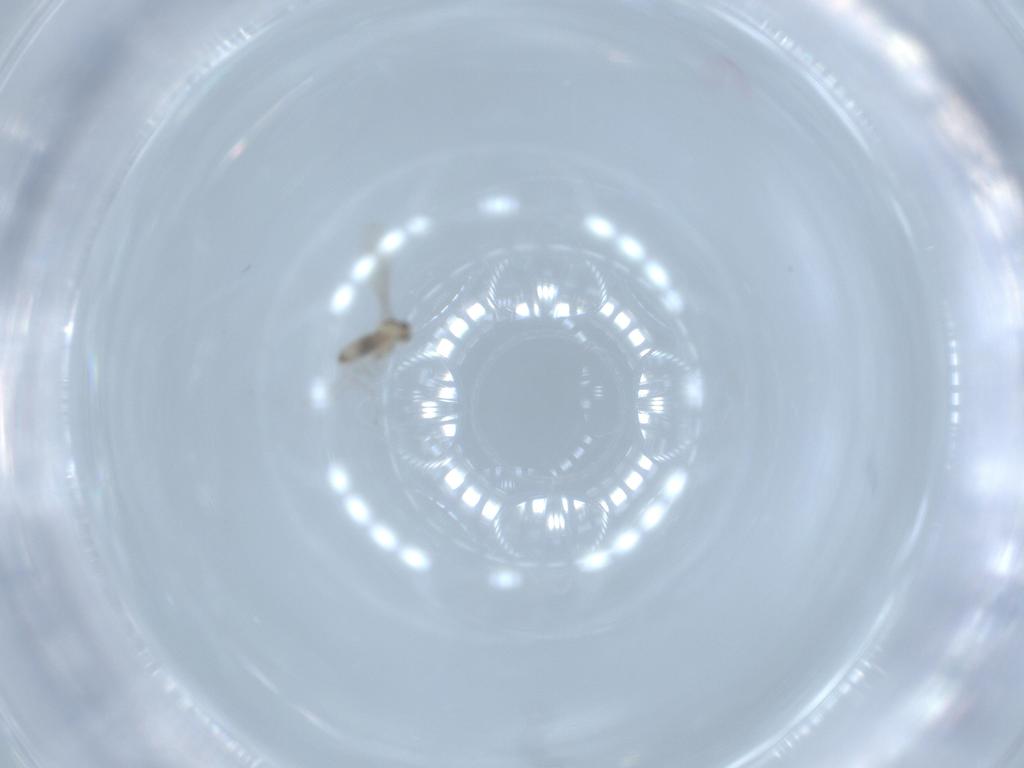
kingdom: Animalia
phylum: Arthropoda
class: Insecta
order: Diptera
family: Cecidomyiidae
